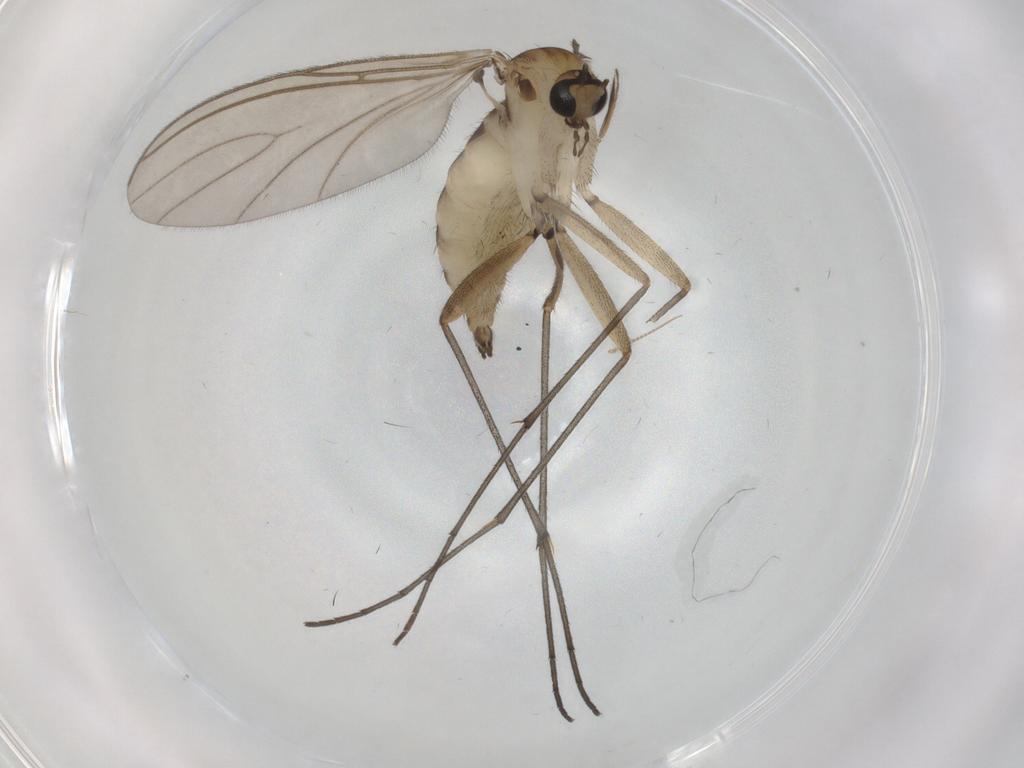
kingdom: Animalia
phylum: Arthropoda
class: Insecta
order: Diptera
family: Sciaridae
